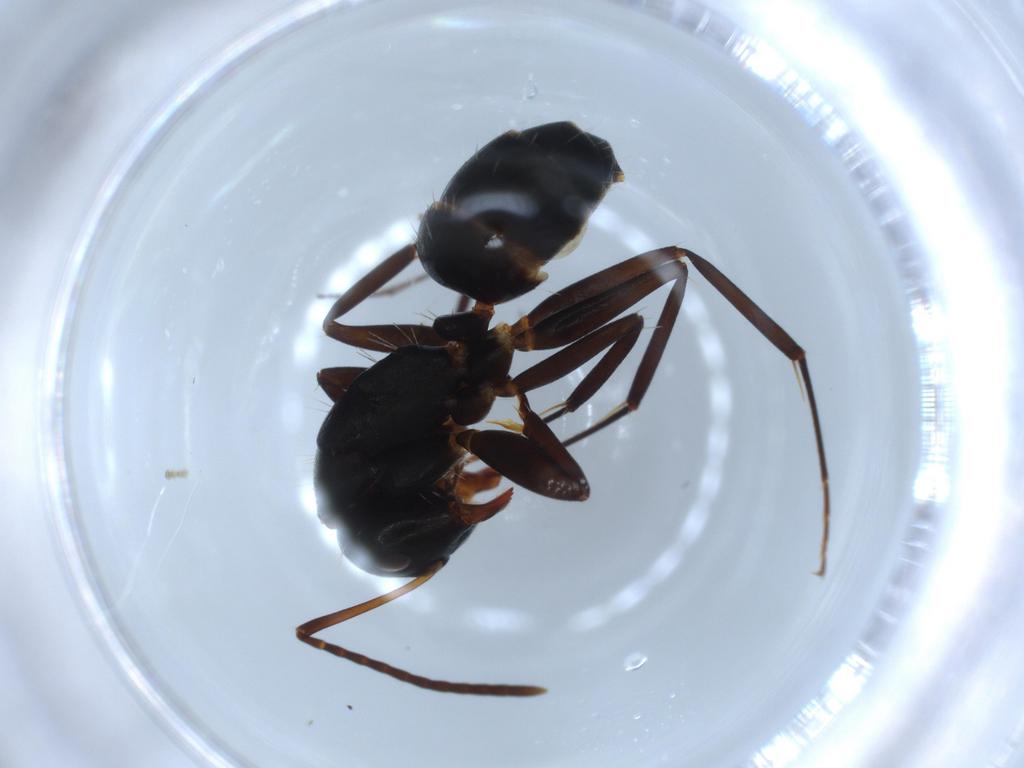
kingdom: Animalia
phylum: Arthropoda
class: Insecta
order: Hymenoptera
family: Formicidae
